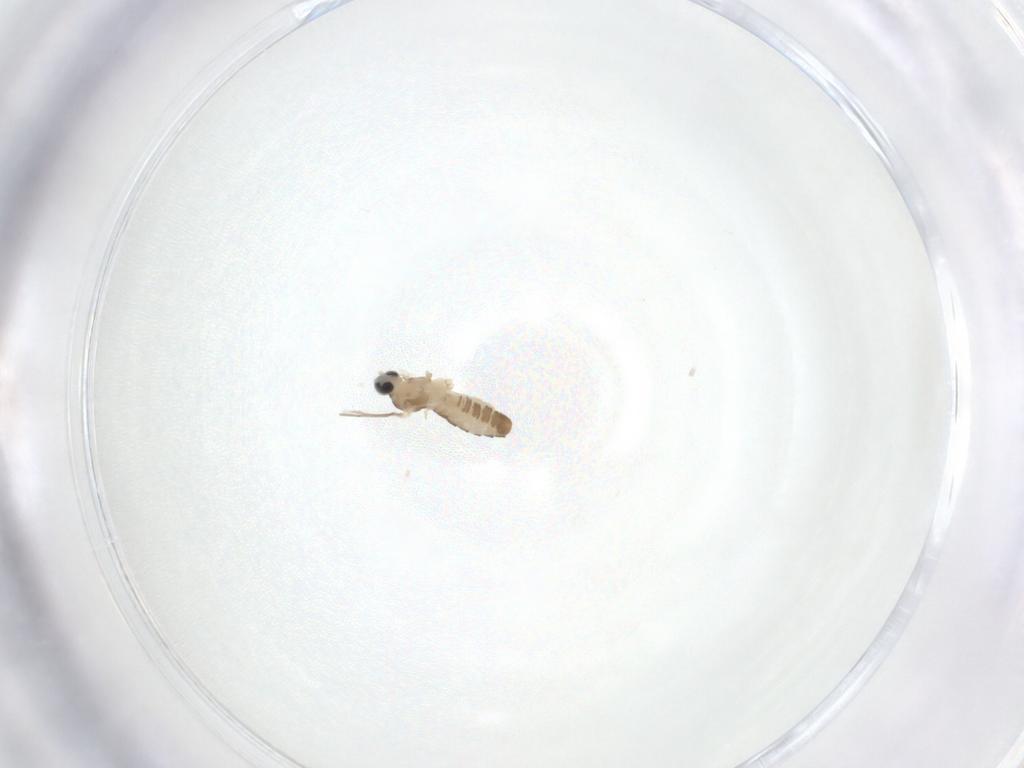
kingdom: Animalia
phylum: Arthropoda
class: Insecta
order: Diptera
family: Cecidomyiidae
